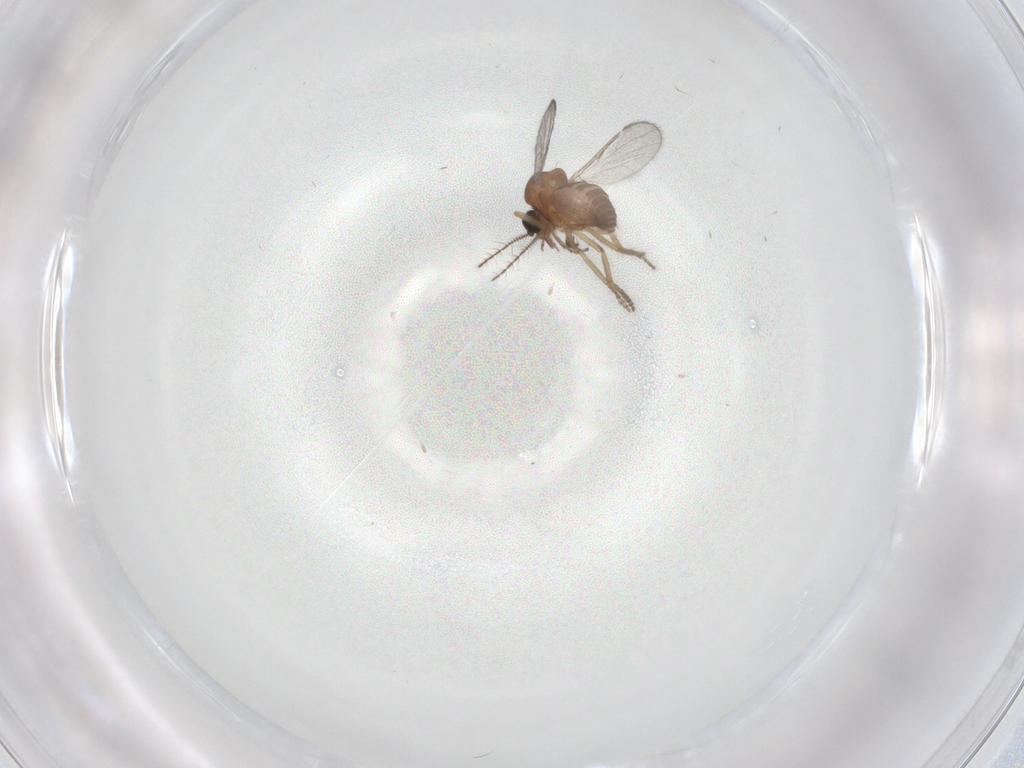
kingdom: Animalia
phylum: Arthropoda
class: Insecta
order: Diptera
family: Ceratopogonidae
